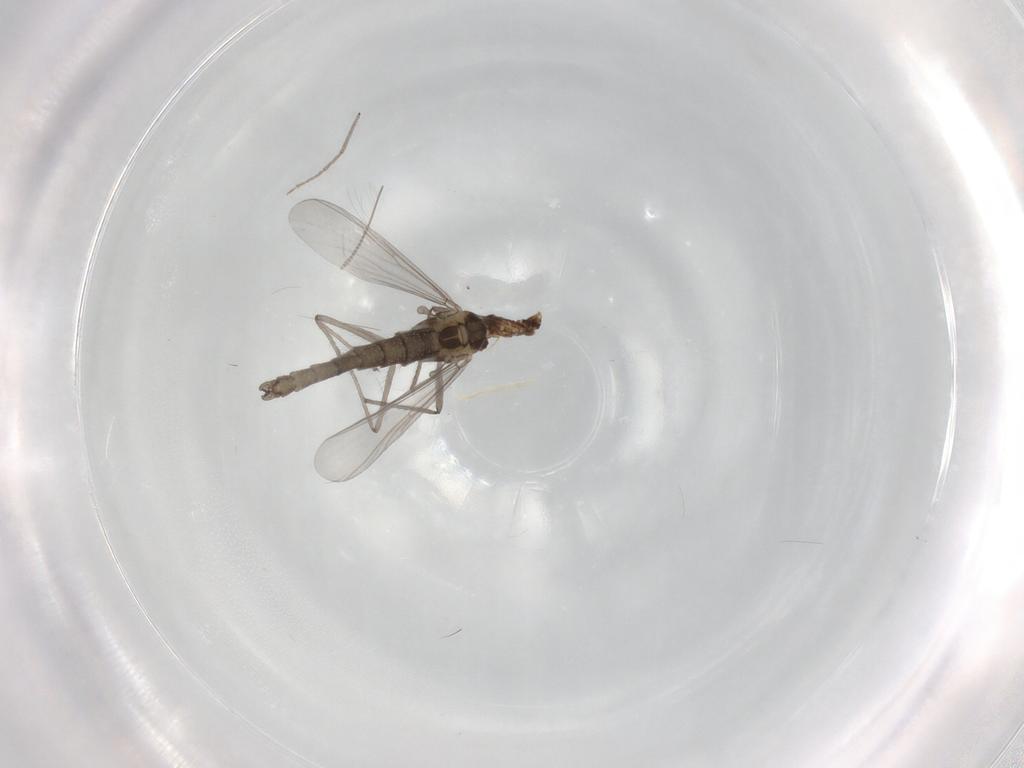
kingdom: Animalia
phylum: Arthropoda
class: Insecta
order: Diptera
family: Chironomidae
